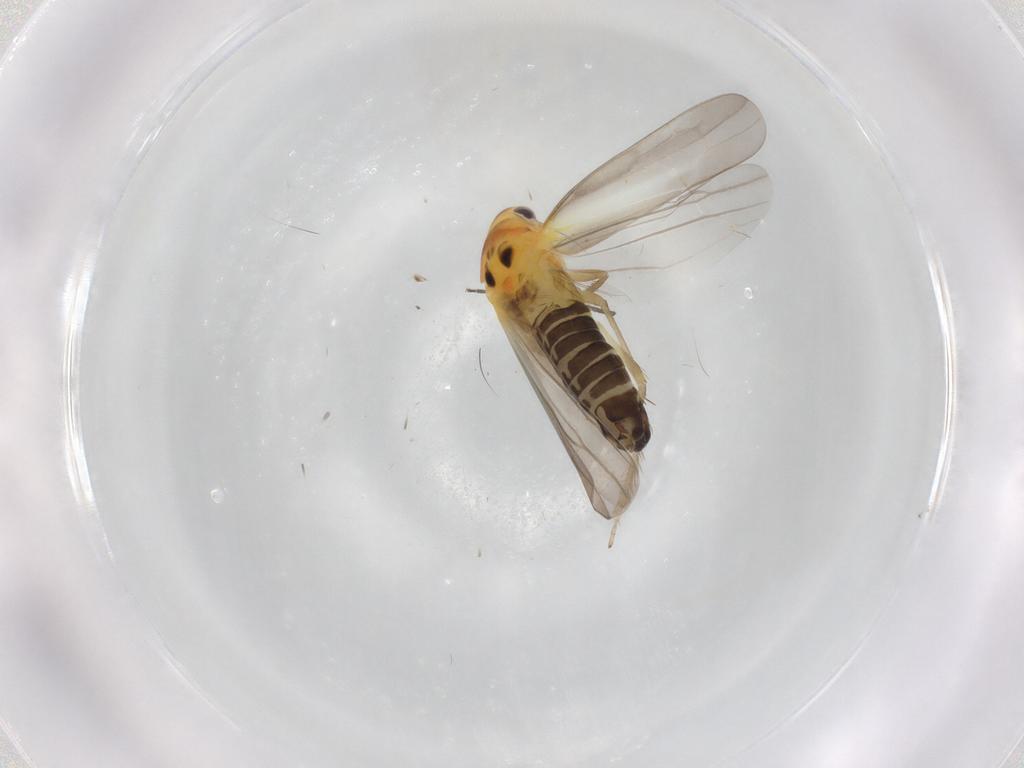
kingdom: Animalia
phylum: Arthropoda
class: Insecta
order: Hemiptera
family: Cicadellidae
